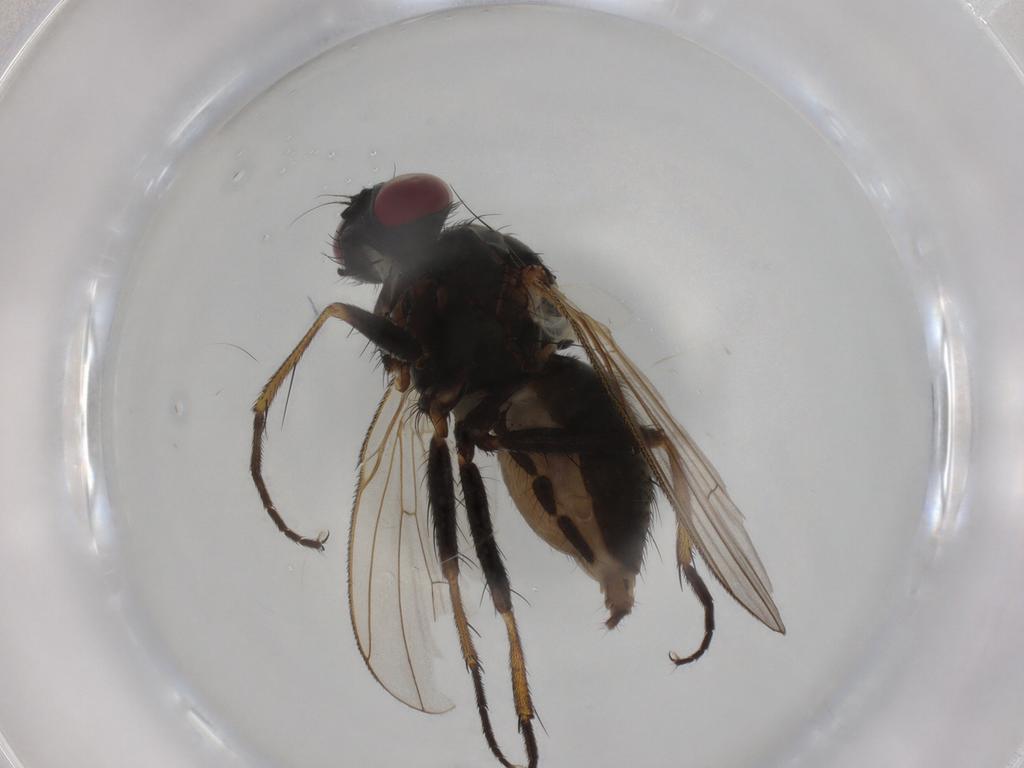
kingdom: Animalia
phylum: Arthropoda
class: Insecta
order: Diptera
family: Chironomidae
